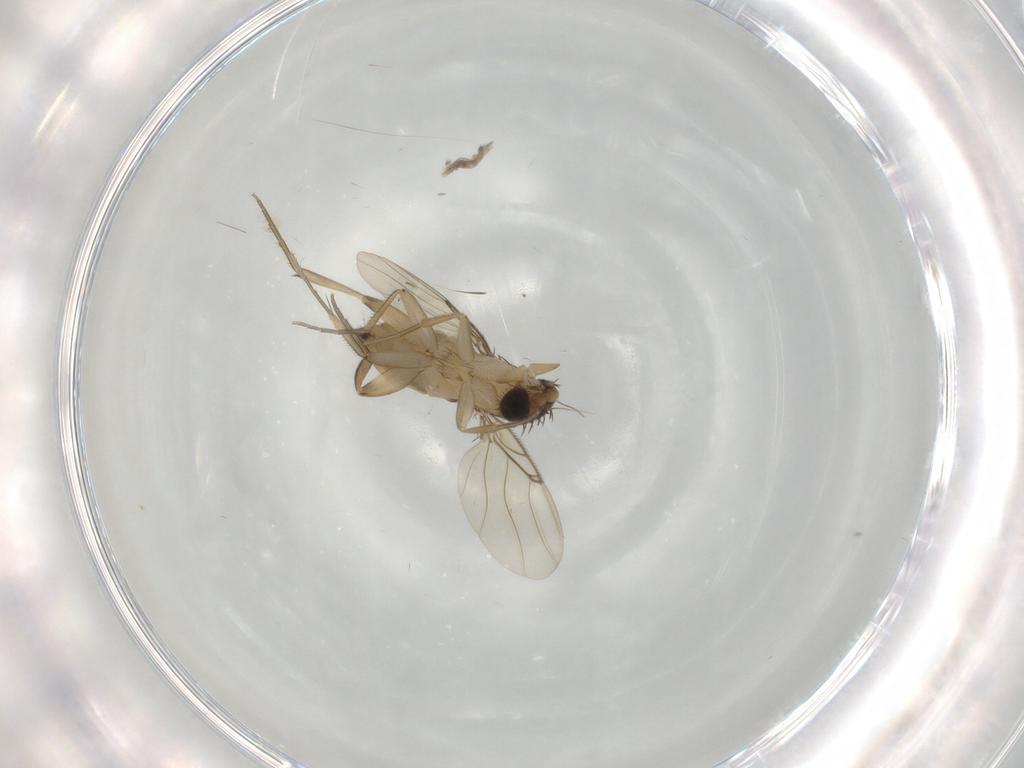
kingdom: Animalia
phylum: Arthropoda
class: Insecta
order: Diptera
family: Phoridae
